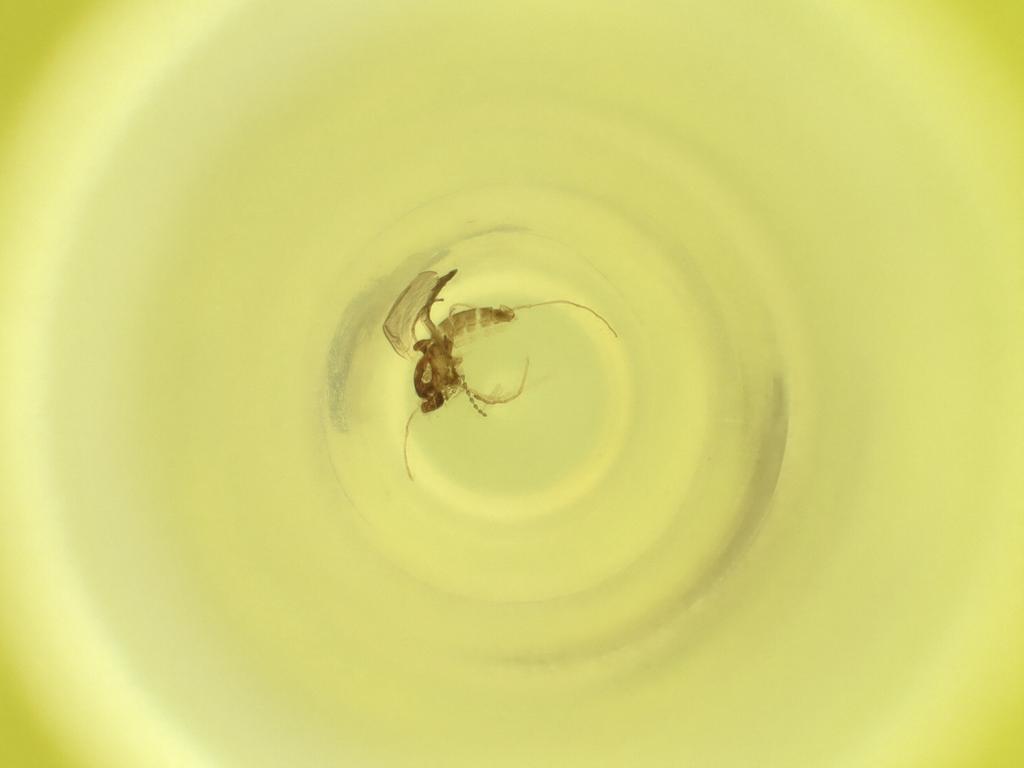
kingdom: Animalia
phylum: Arthropoda
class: Insecta
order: Diptera
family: Cecidomyiidae
